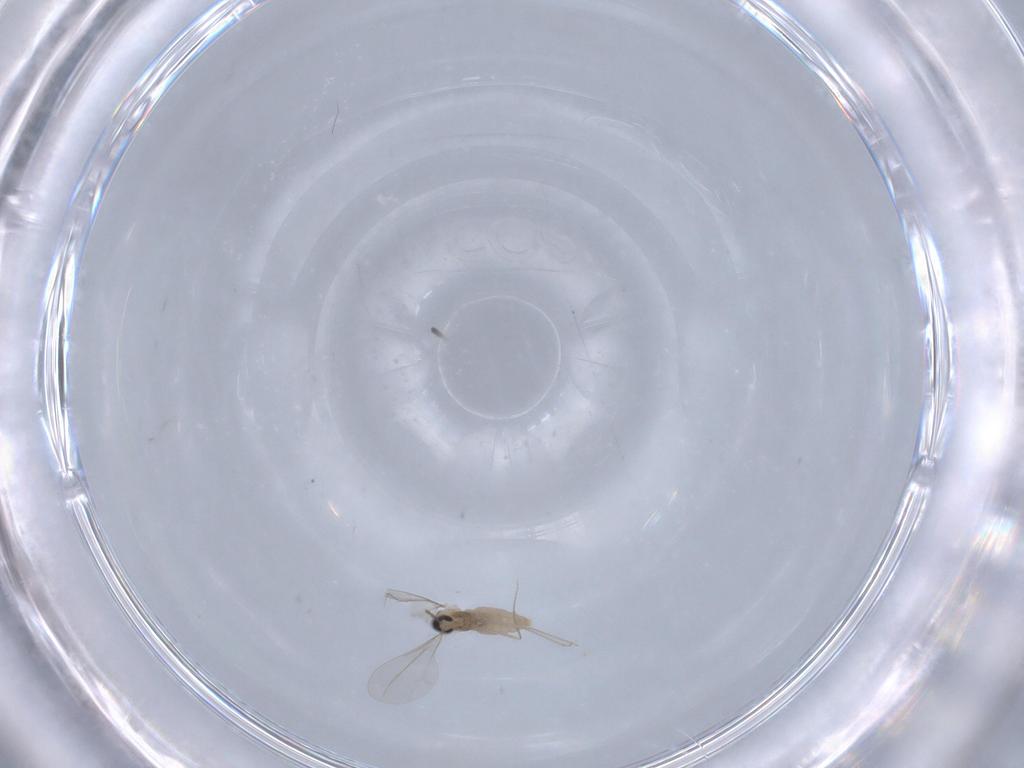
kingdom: Animalia
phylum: Arthropoda
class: Insecta
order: Diptera
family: Cecidomyiidae
